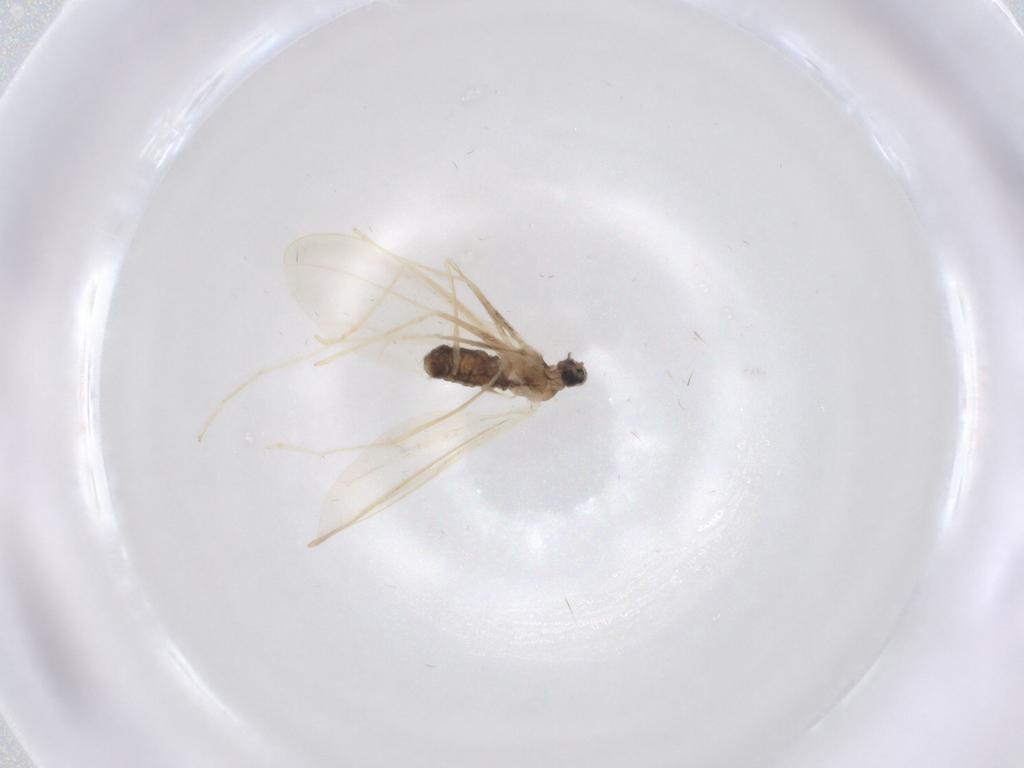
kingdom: Animalia
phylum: Arthropoda
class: Insecta
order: Diptera
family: Cecidomyiidae
